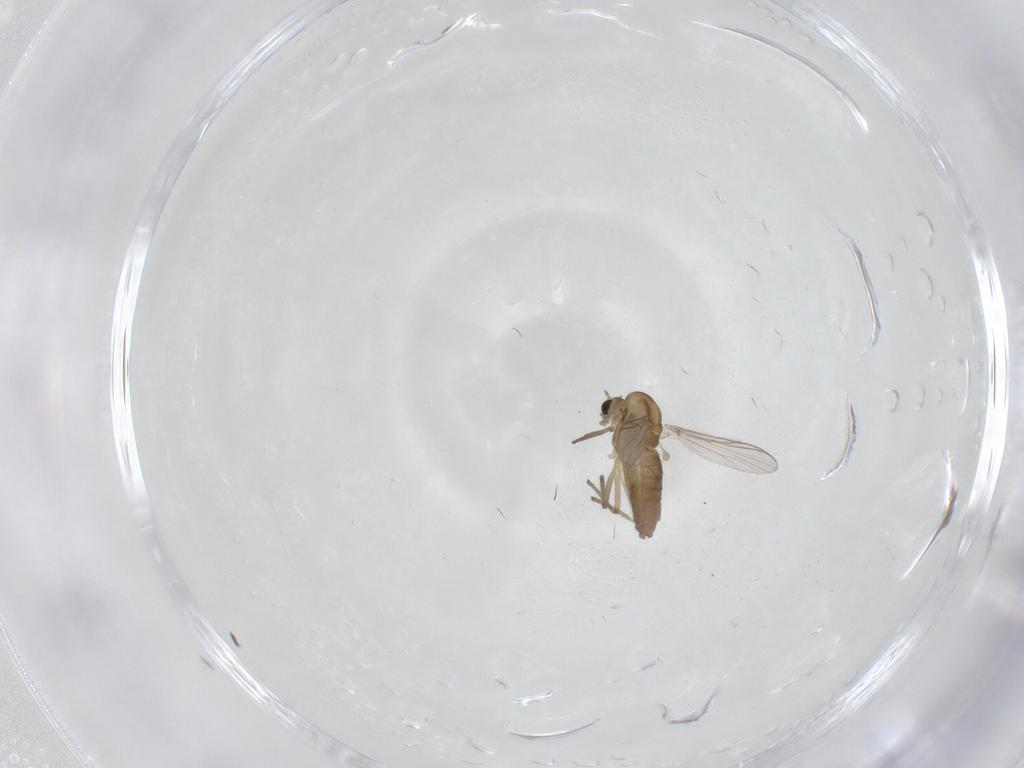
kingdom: Animalia
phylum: Arthropoda
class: Insecta
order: Diptera
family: Chironomidae
